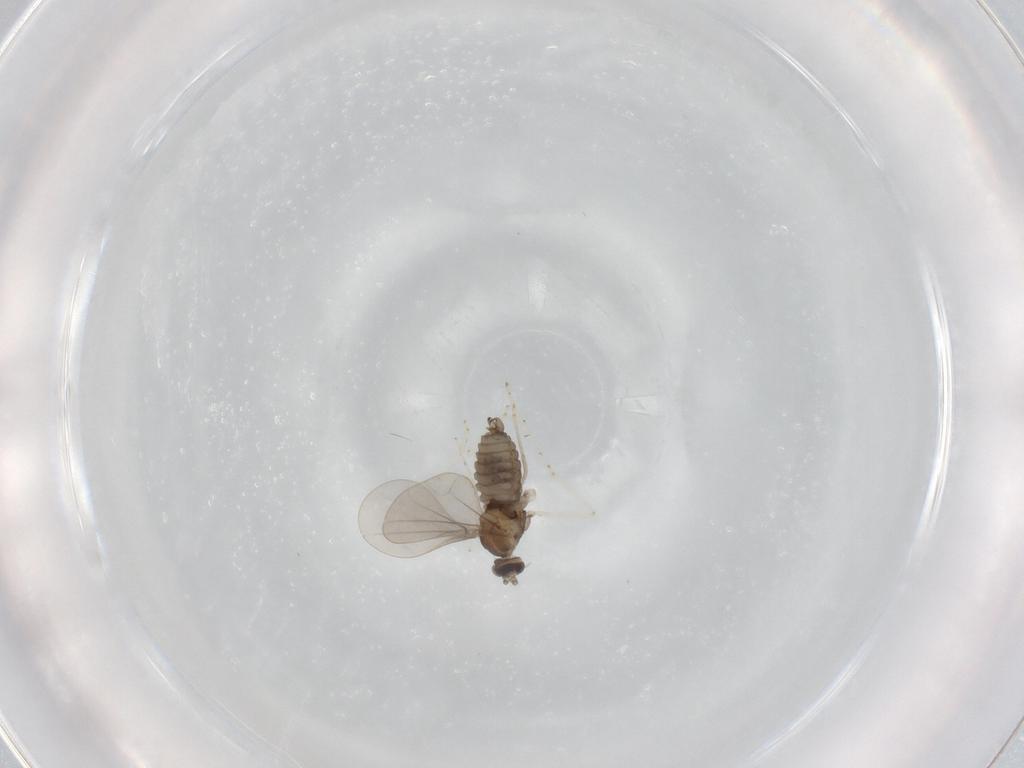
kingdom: Animalia
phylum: Arthropoda
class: Insecta
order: Diptera
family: Cecidomyiidae
